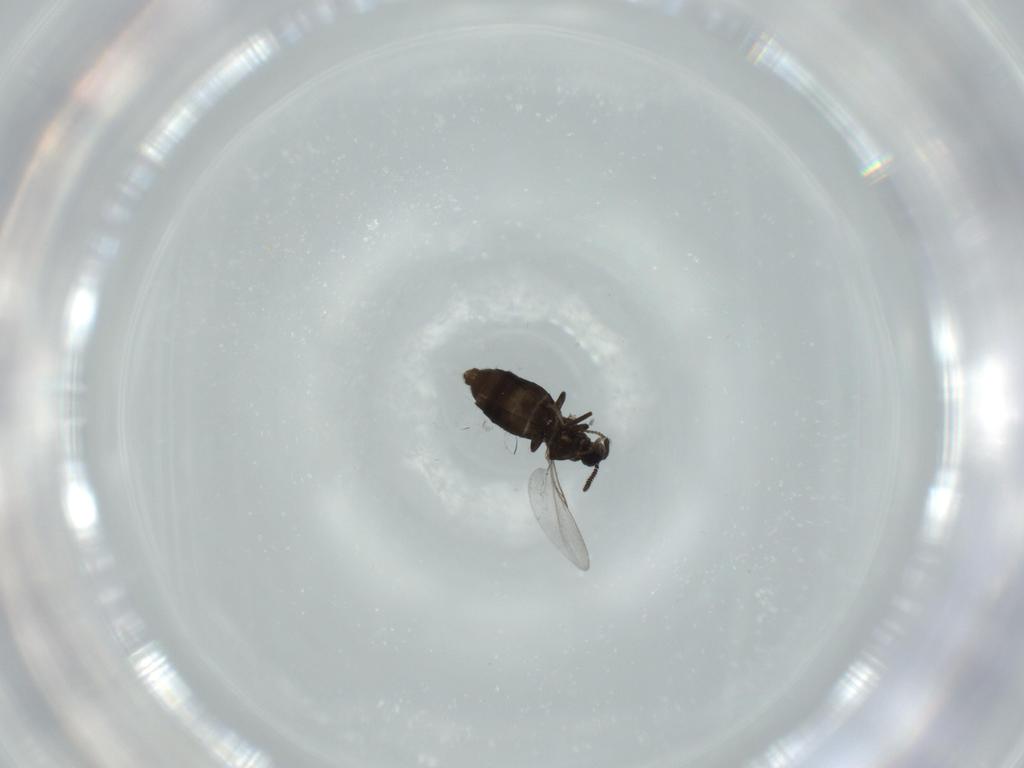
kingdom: Animalia
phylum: Arthropoda
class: Insecta
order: Diptera
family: Scatopsidae
